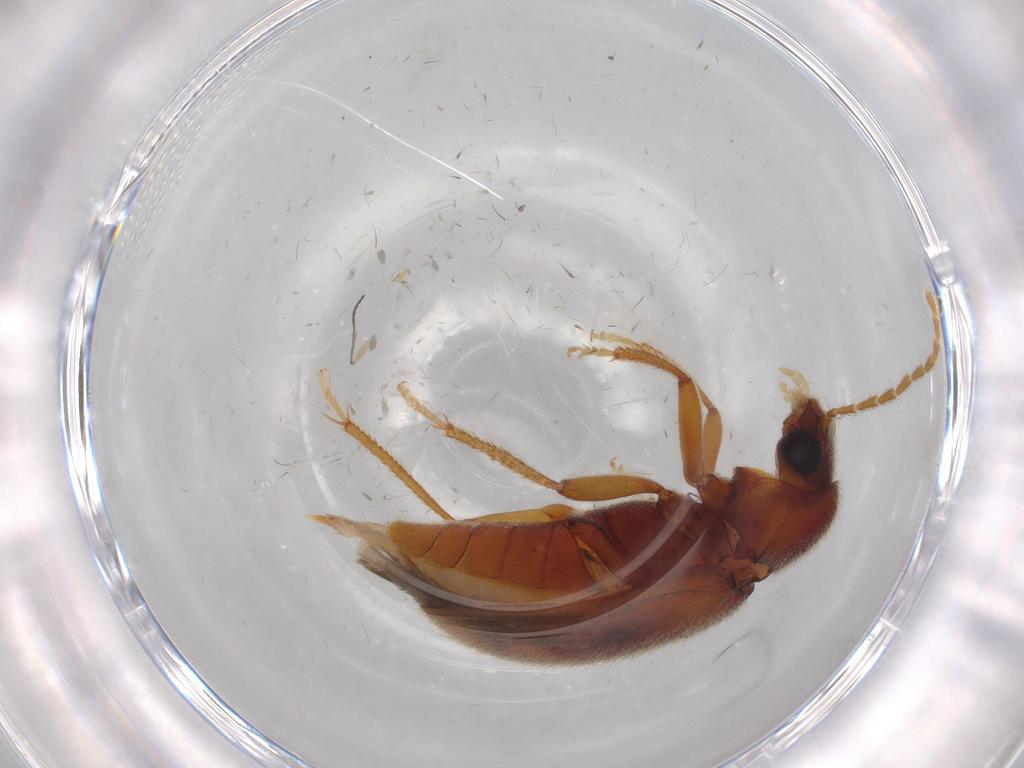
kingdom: Animalia
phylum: Arthropoda
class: Insecta
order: Coleoptera
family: Ptilodactylidae
